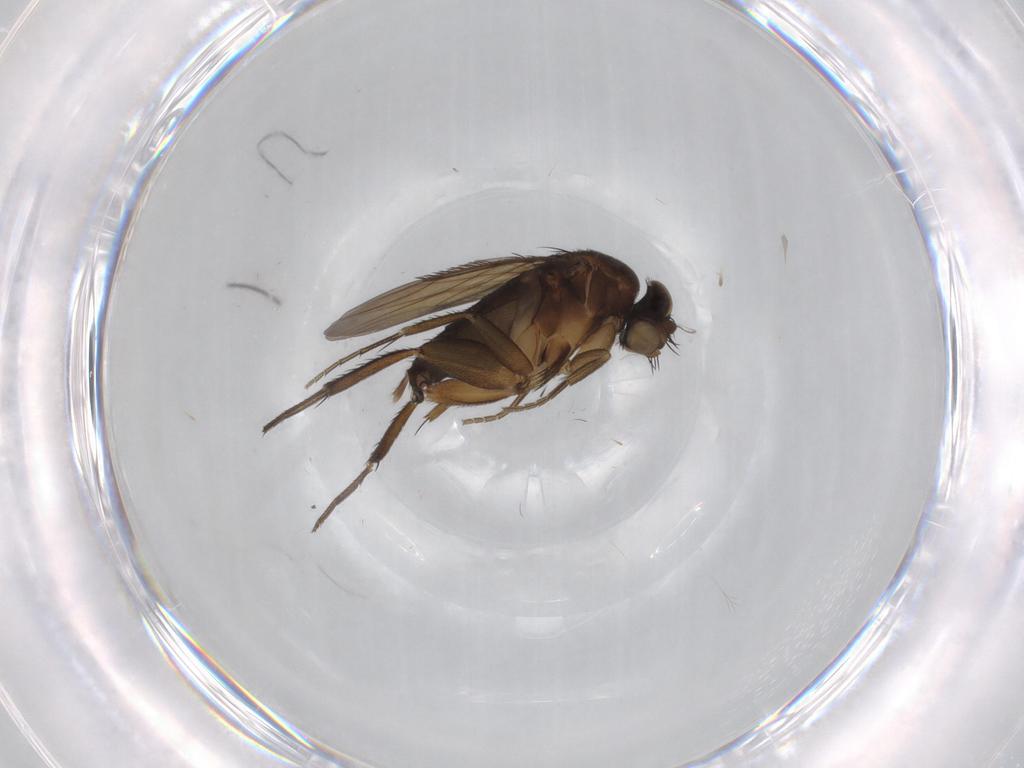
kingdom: Animalia
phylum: Arthropoda
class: Insecta
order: Diptera
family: Phoridae
